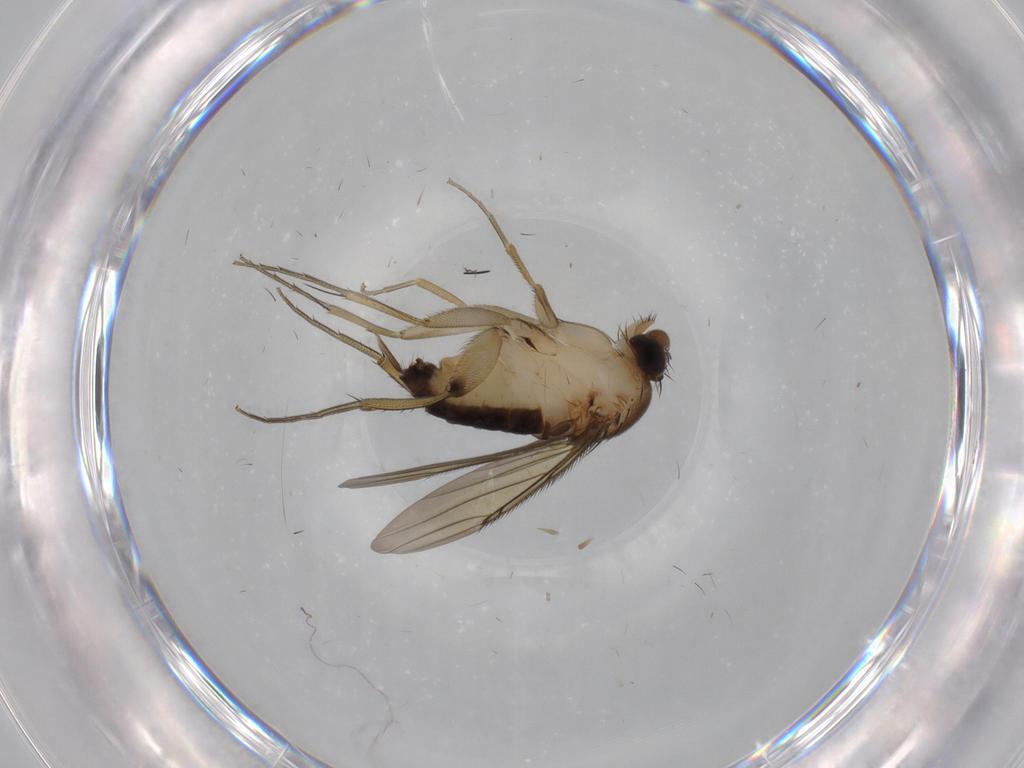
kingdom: Animalia
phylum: Arthropoda
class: Insecta
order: Diptera
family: Phoridae
